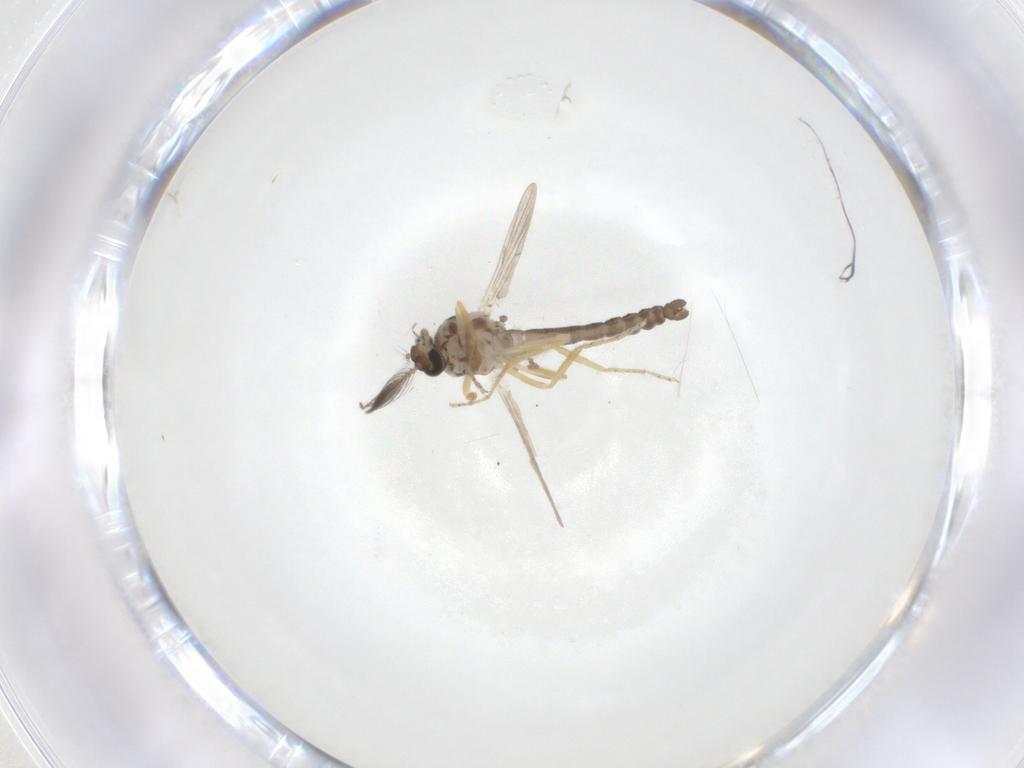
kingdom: Animalia
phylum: Arthropoda
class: Insecta
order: Diptera
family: Ceratopogonidae
